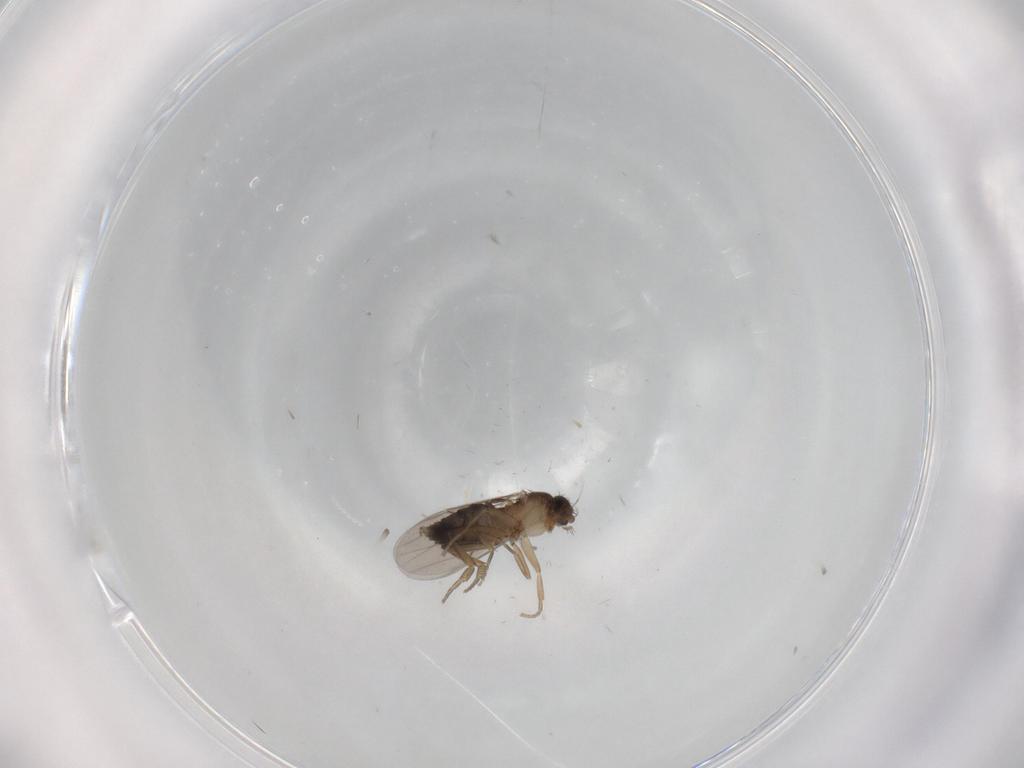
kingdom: Animalia
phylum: Arthropoda
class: Insecta
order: Diptera
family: Phoridae
